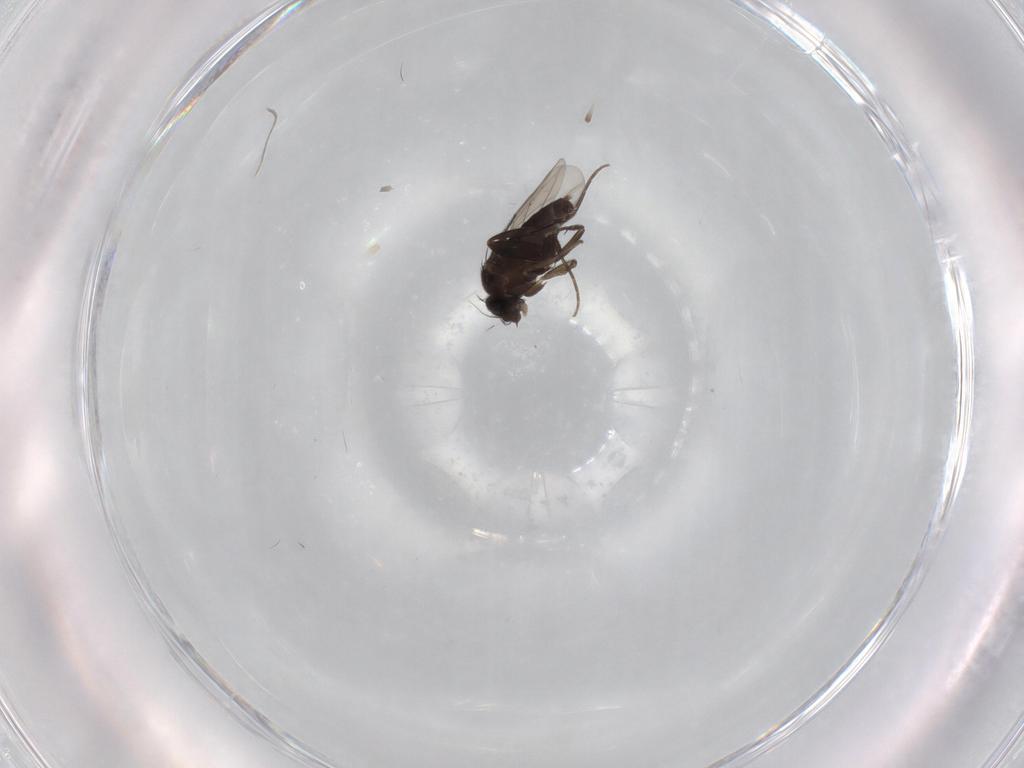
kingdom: Animalia
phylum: Arthropoda
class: Insecta
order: Diptera
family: Phoridae
